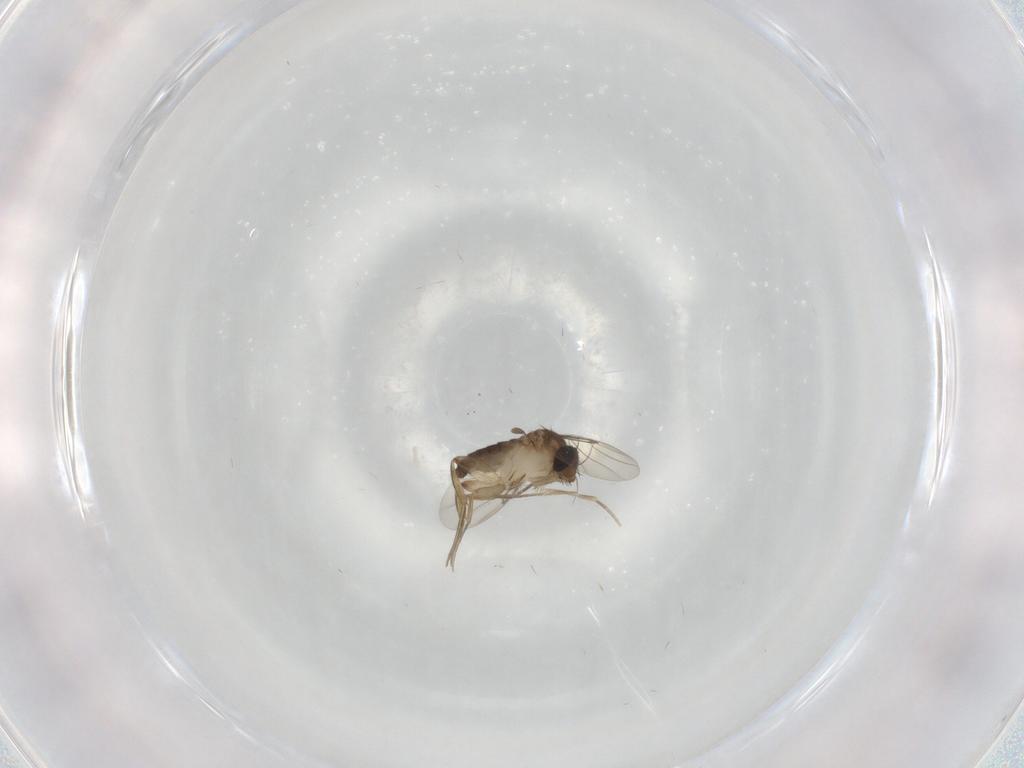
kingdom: Animalia
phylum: Arthropoda
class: Insecta
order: Diptera
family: Phoridae
